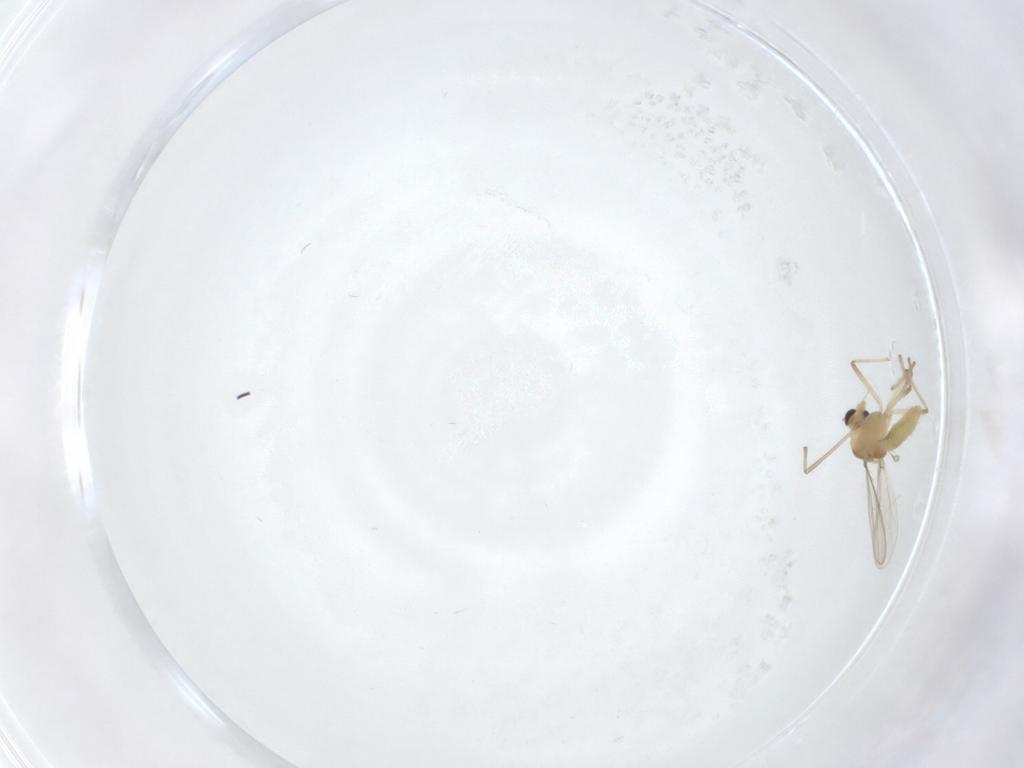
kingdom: Animalia
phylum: Arthropoda
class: Insecta
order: Diptera
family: Chironomidae
